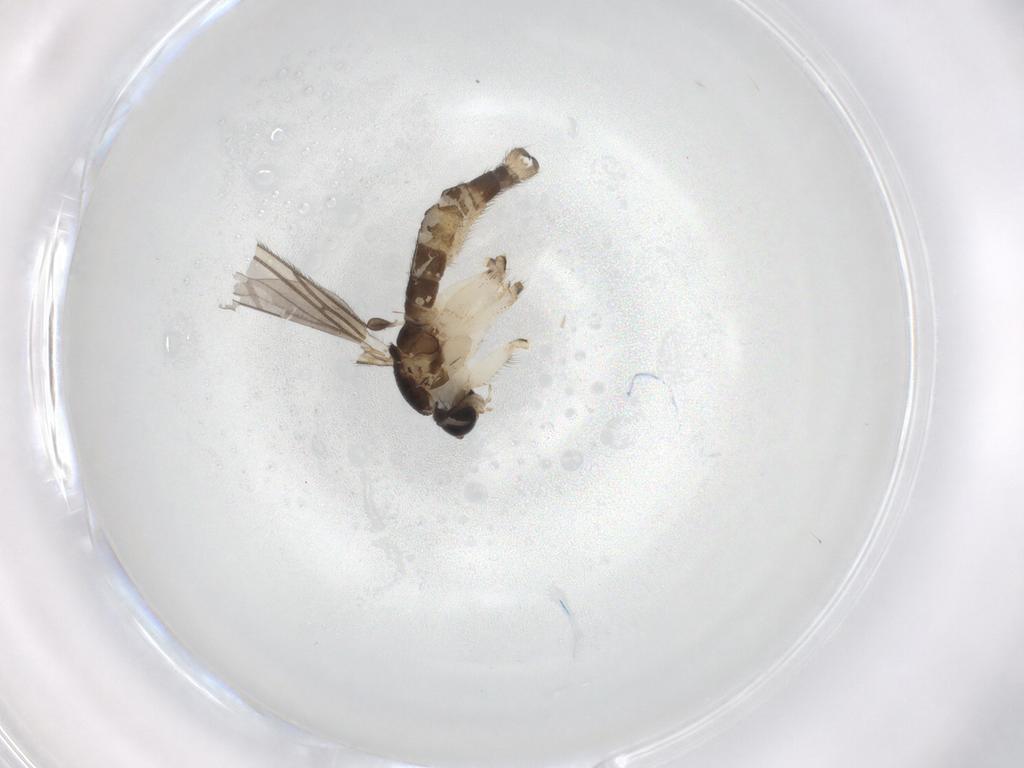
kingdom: Animalia
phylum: Arthropoda
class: Insecta
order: Diptera
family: Sciaridae
